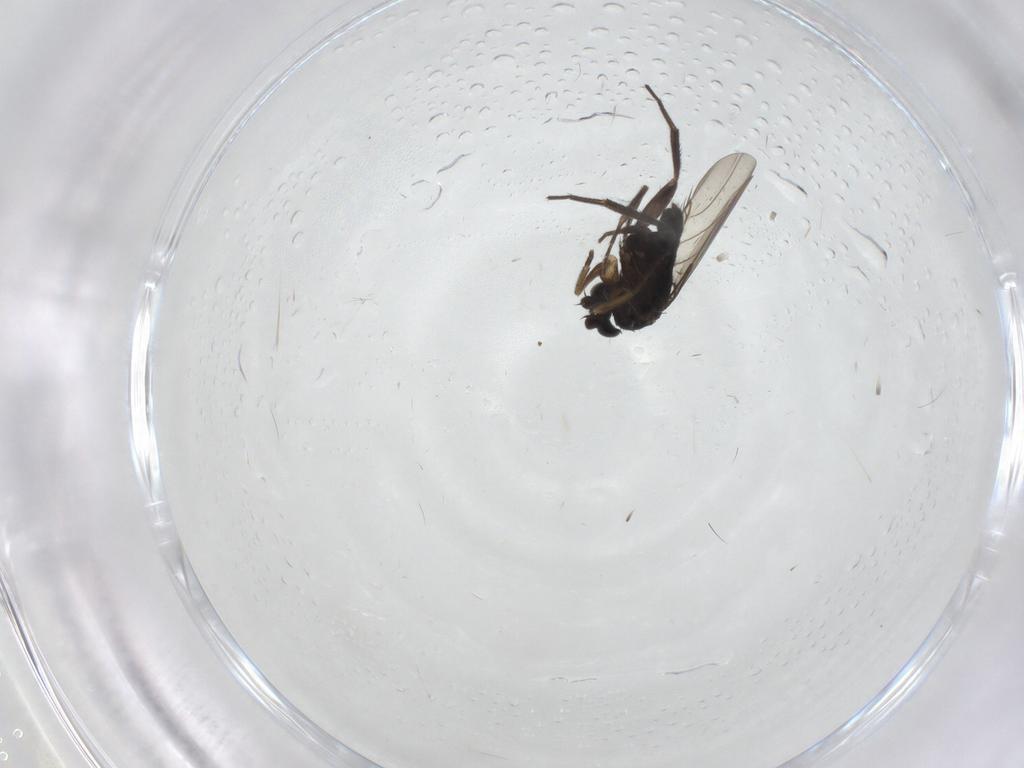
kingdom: Animalia
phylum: Arthropoda
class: Insecta
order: Diptera
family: Phoridae
